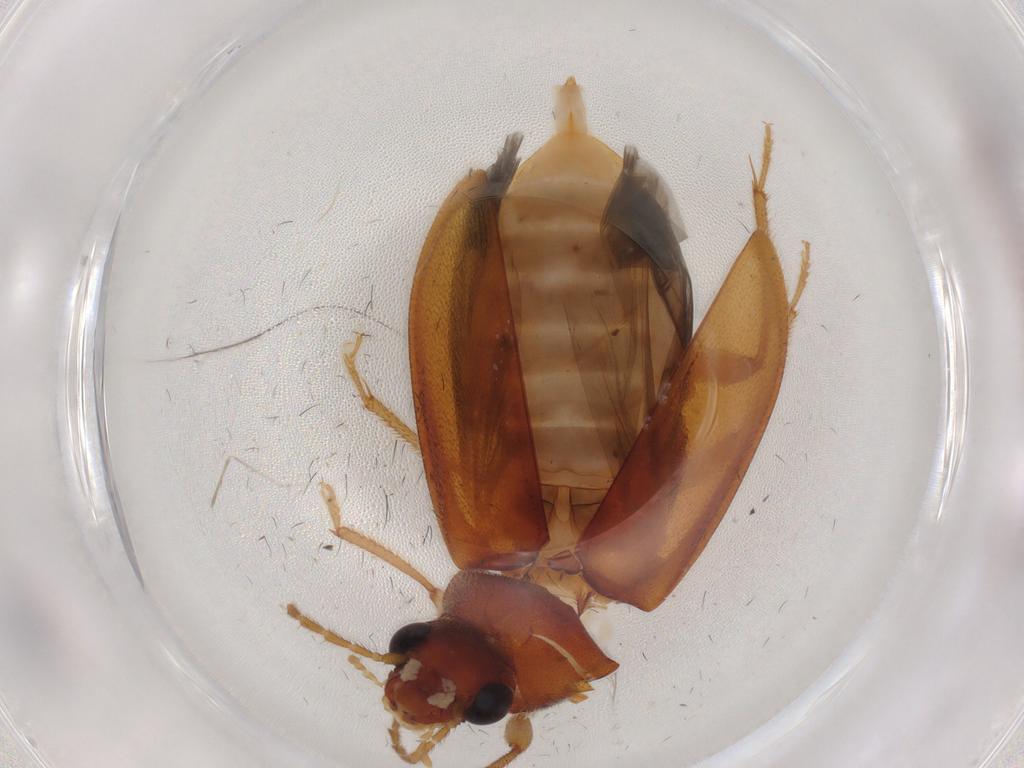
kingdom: Animalia
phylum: Arthropoda
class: Insecta
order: Coleoptera
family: Ptilodactylidae
